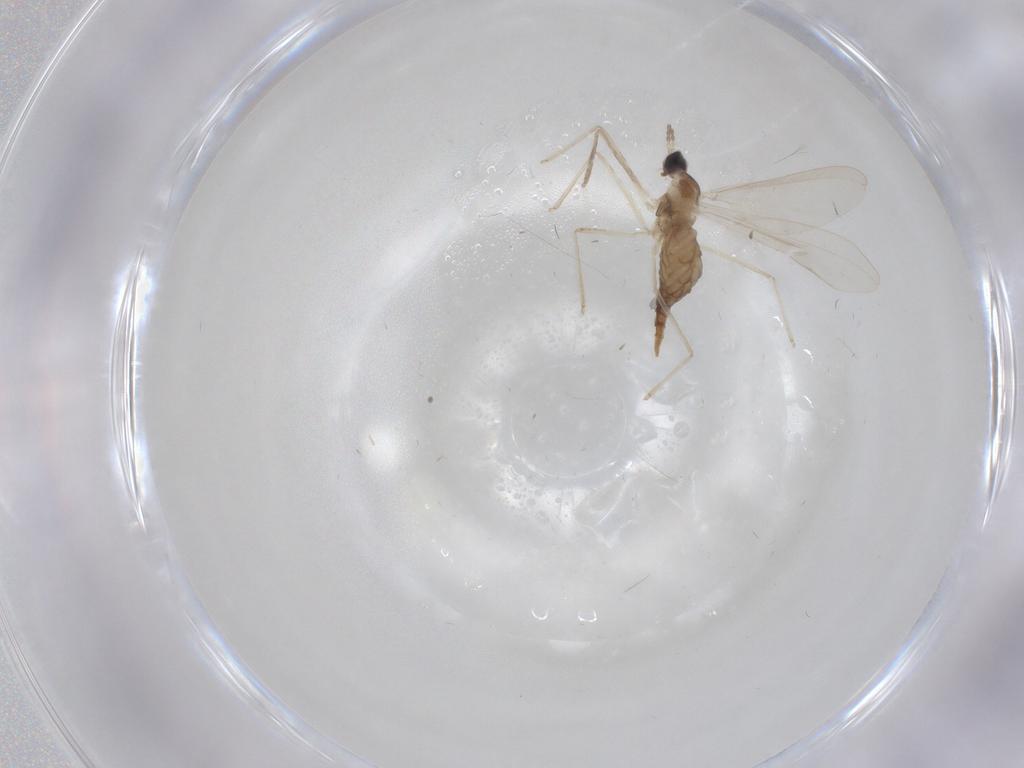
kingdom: Animalia
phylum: Arthropoda
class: Insecta
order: Diptera
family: Cecidomyiidae
